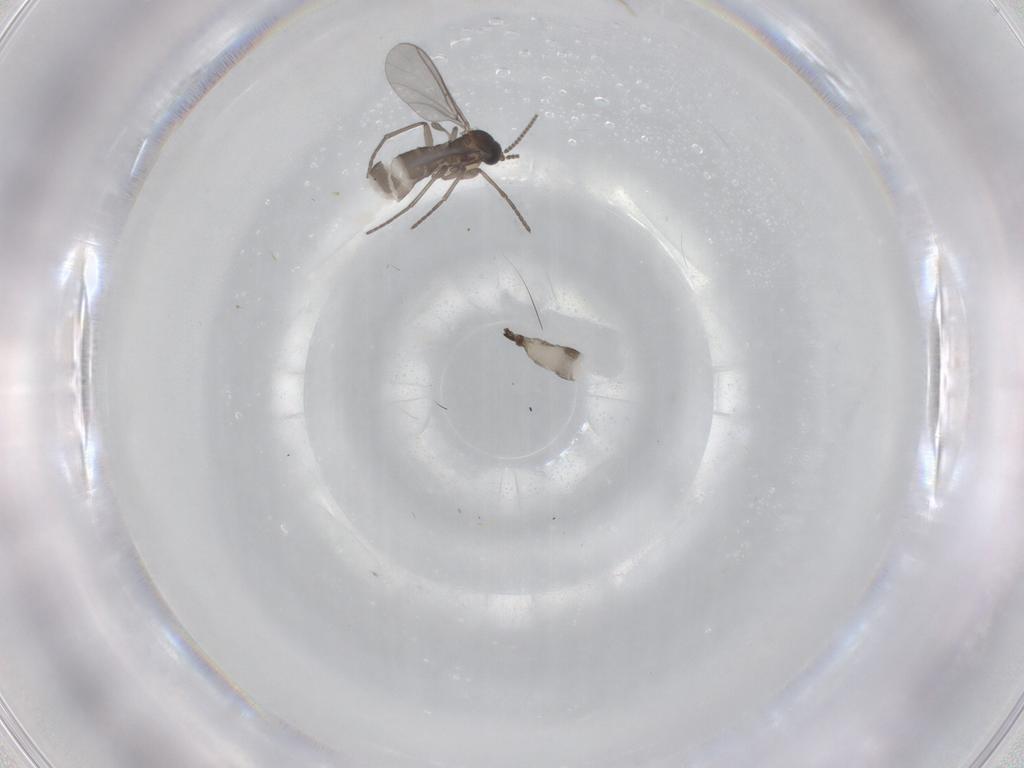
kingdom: Animalia
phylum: Arthropoda
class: Insecta
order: Diptera
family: Sciaridae
